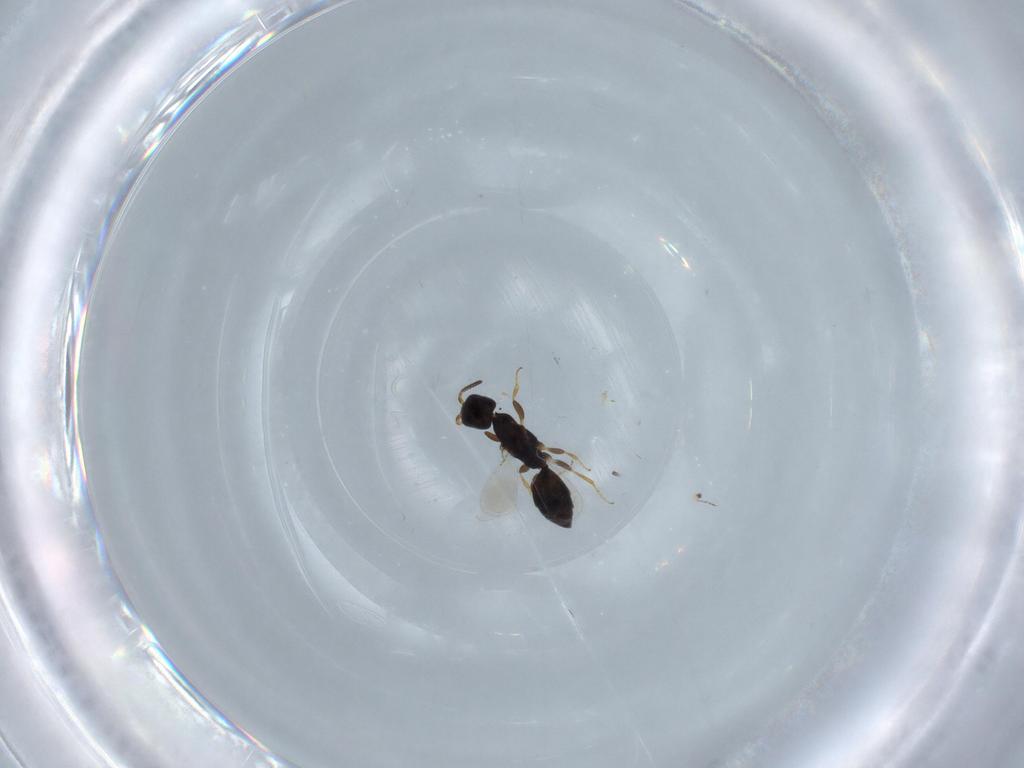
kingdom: Animalia
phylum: Arthropoda
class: Insecta
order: Hymenoptera
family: Bethylidae
